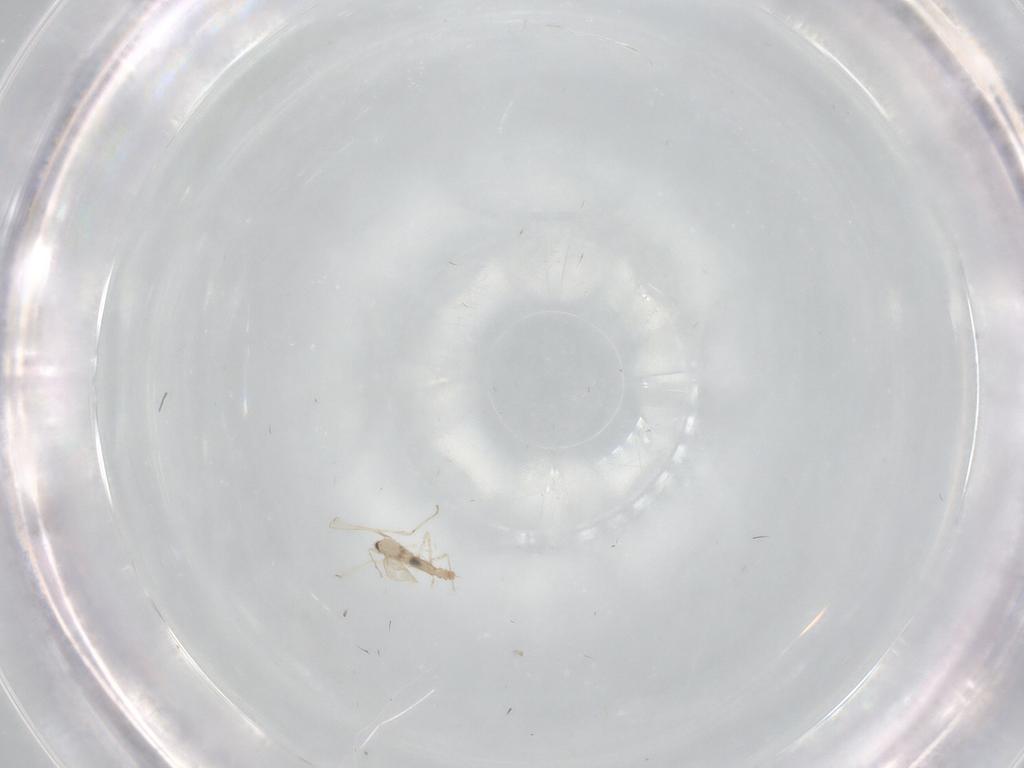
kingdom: Animalia
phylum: Arthropoda
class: Insecta
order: Diptera
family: Cecidomyiidae
